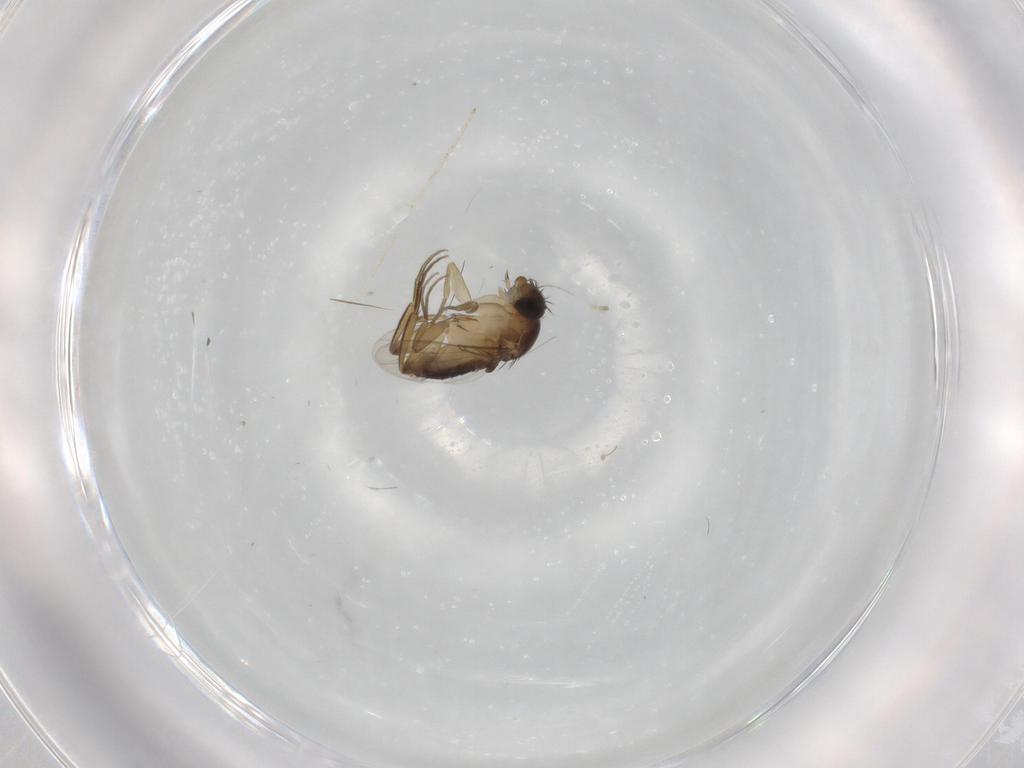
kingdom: Animalia
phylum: Arthropoda
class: Insecta
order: Diptera
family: Phoridae
